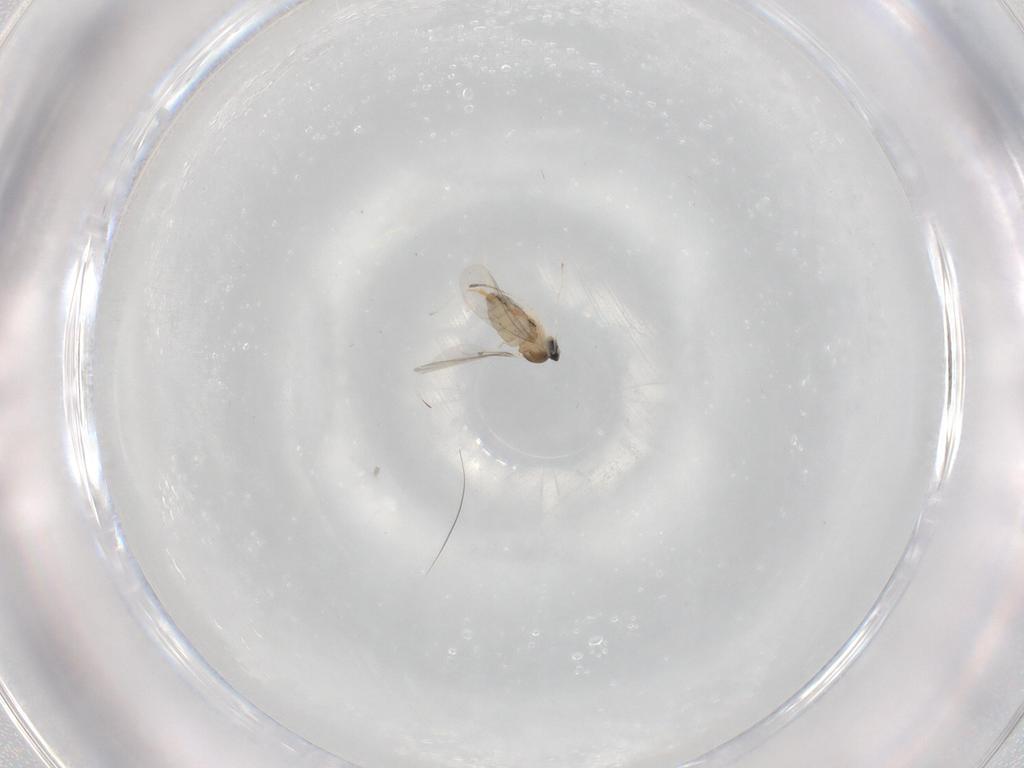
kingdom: Animalia
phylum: Arthropoda
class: Insecta
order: Diptera
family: Cecidomyiidae
